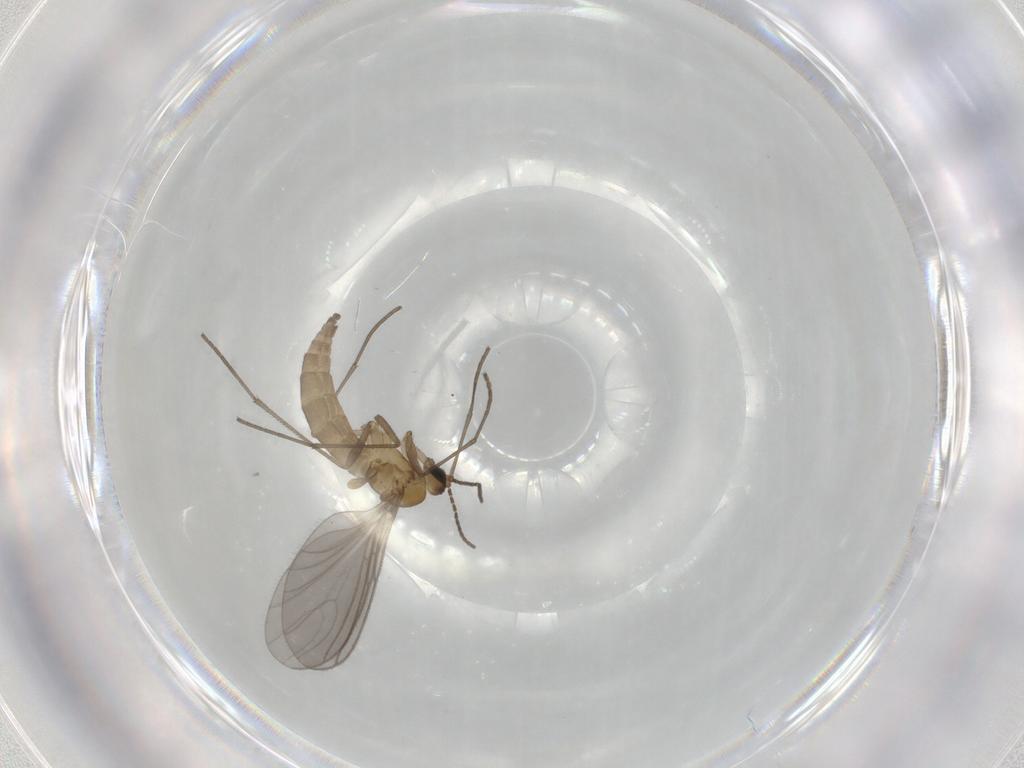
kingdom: Animalia
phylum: Arthropoda
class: Insecta
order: Diptera
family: Sciaridae
